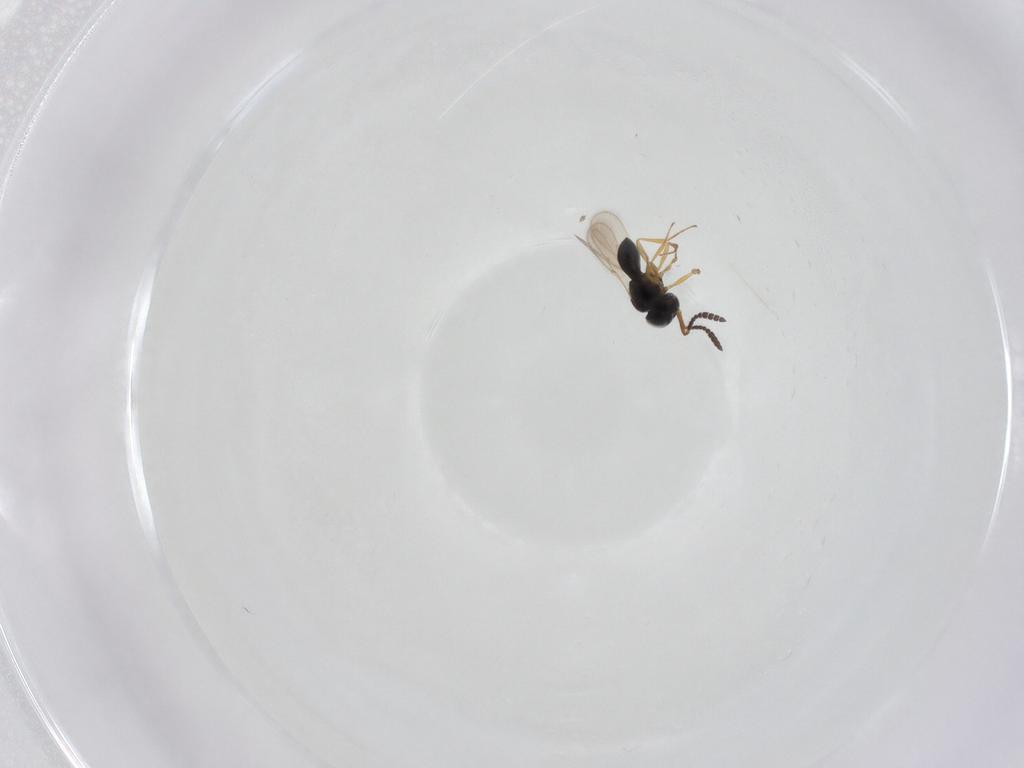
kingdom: Animalia
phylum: Arthropoda
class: Insecta
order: Hymenoptera
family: Scelionidae
